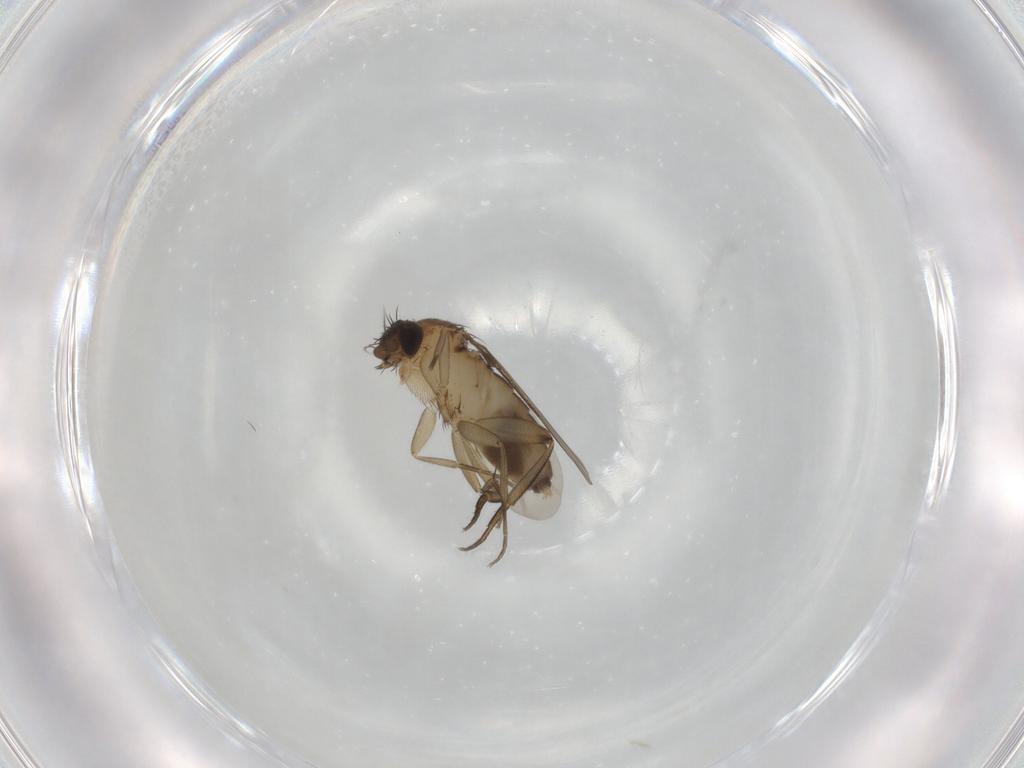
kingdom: Animalia
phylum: Arthropoda
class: Insecta
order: Diptera
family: Phoridae
